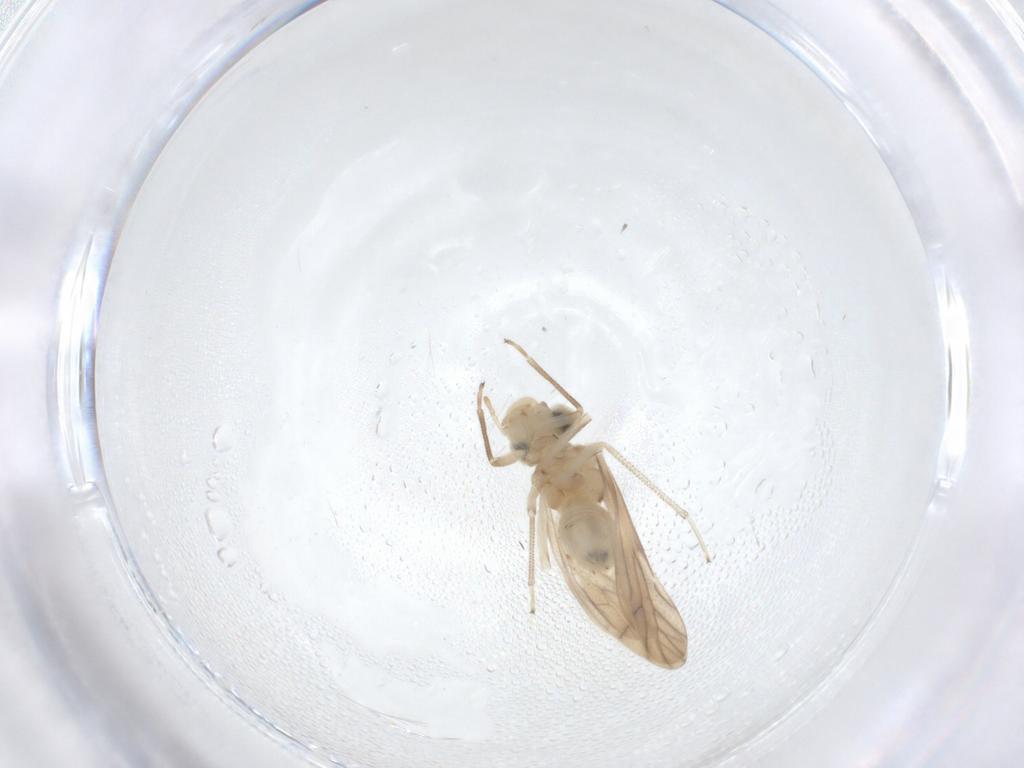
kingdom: Animalia
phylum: Arthropoda
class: Insecta
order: Psocodea
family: Caeciliusidae
